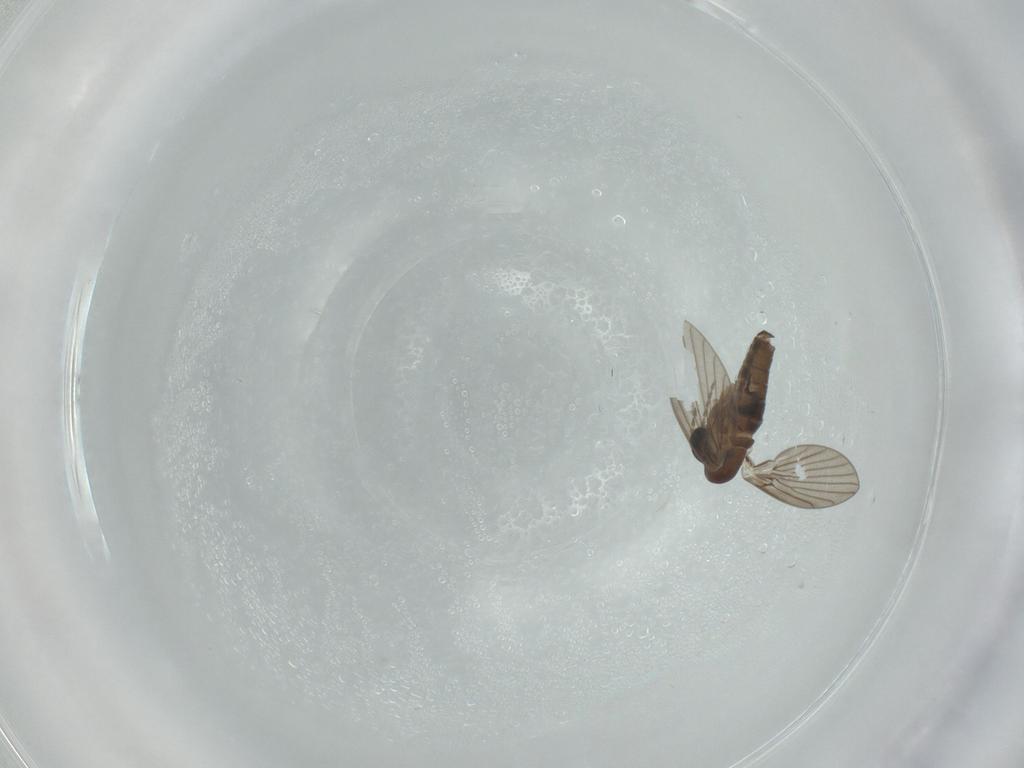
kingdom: Animalia
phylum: Arthropoda
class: Insecta
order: Diptera
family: Psychodidae
